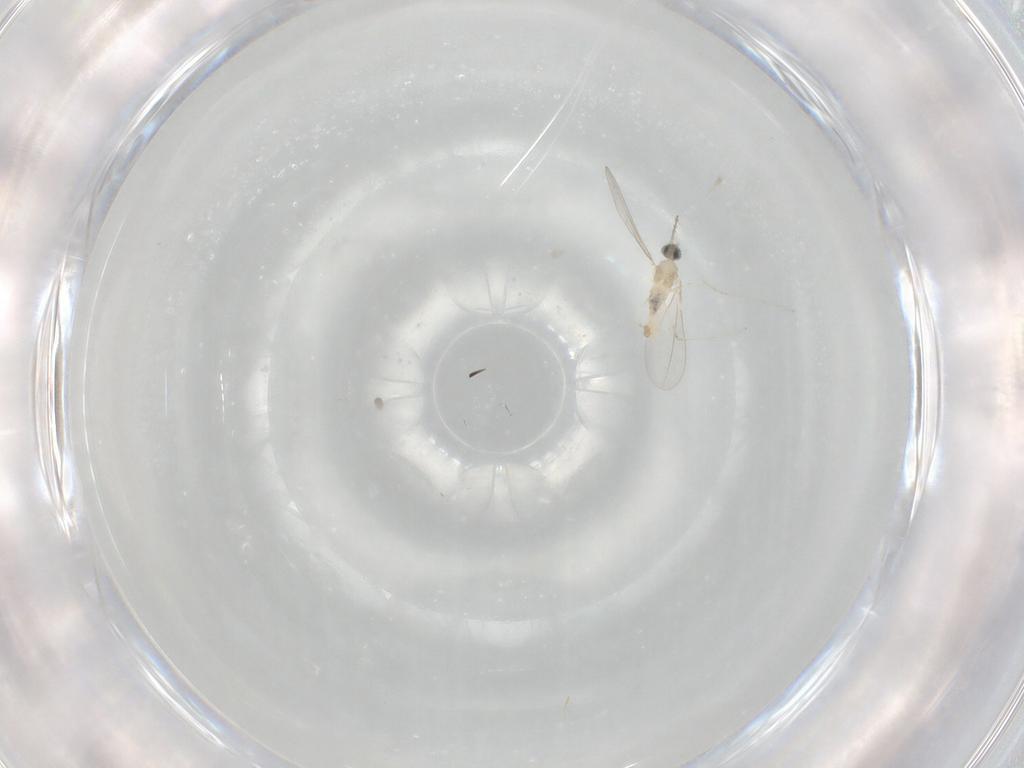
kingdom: Animalia
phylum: Arthropoda
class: Insecta
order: Diptera
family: Cecidomyiidae
